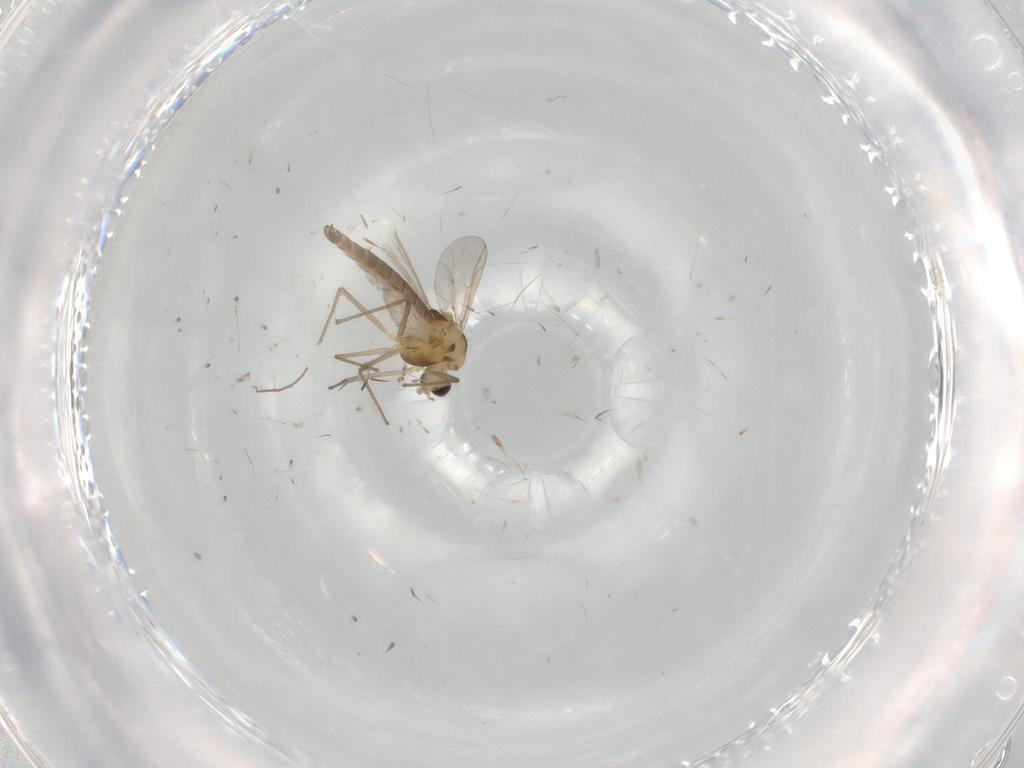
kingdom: Animalia
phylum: Arthropoda
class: Insecta
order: Diptera
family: Chironomidae
